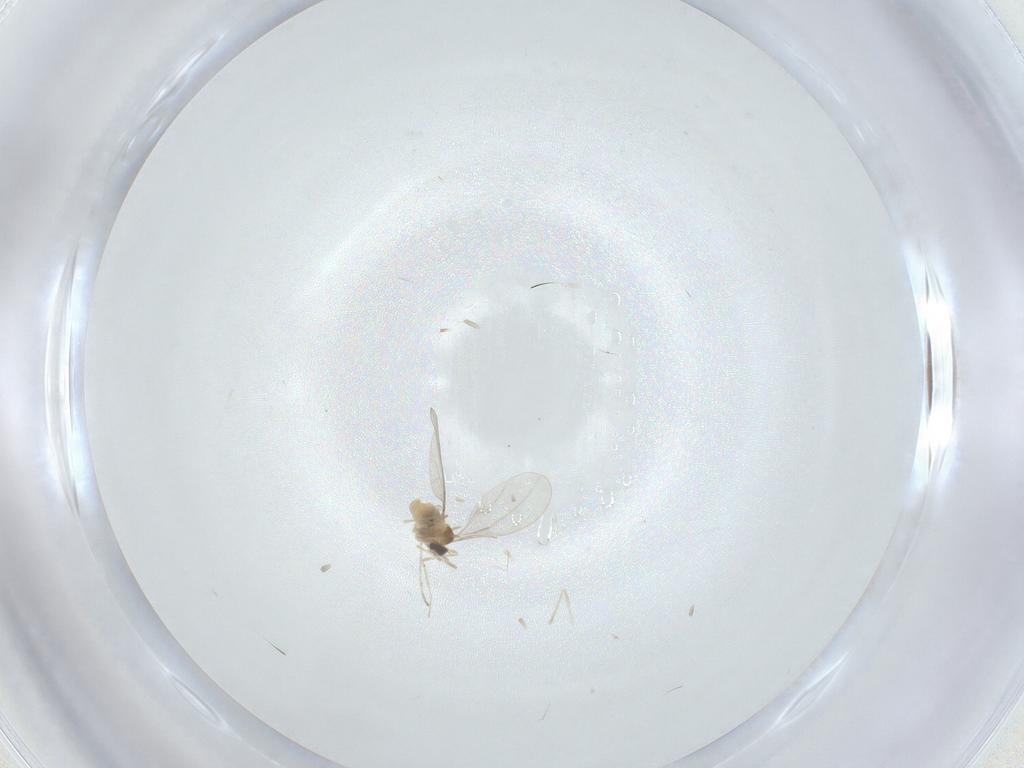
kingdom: Animalia
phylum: Arthropoda
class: Insecta
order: Diptera
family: Cecidomyiidae
